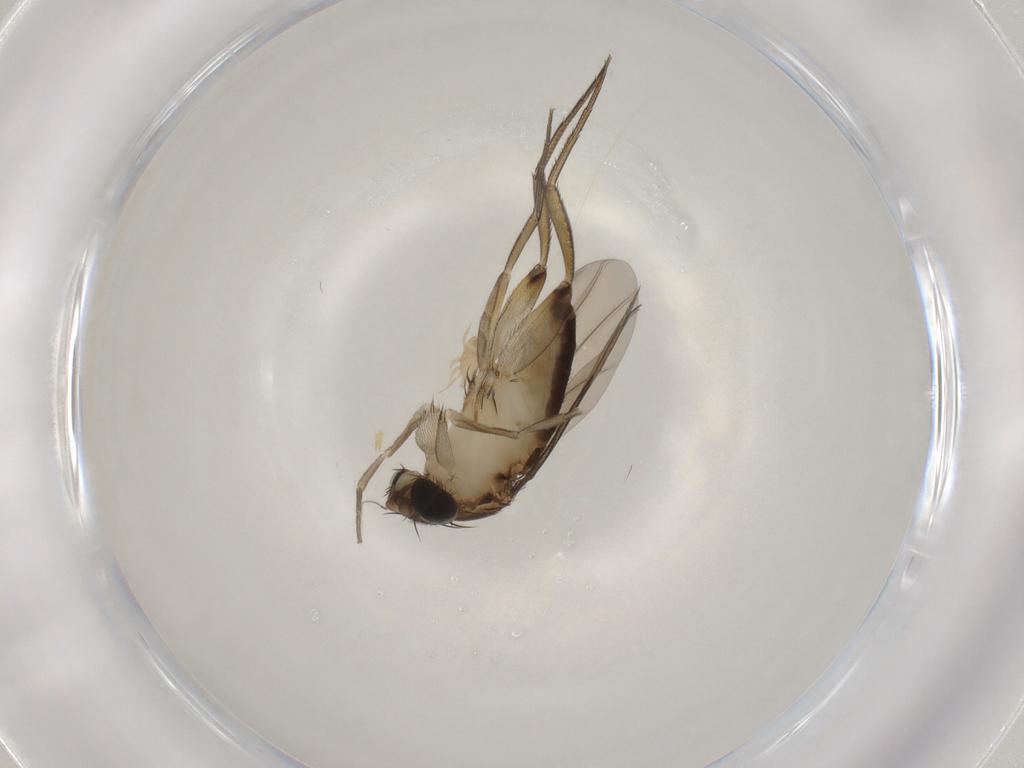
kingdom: Animalia
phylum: Arthropoda
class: Insecta
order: Diptera
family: Phoridae
